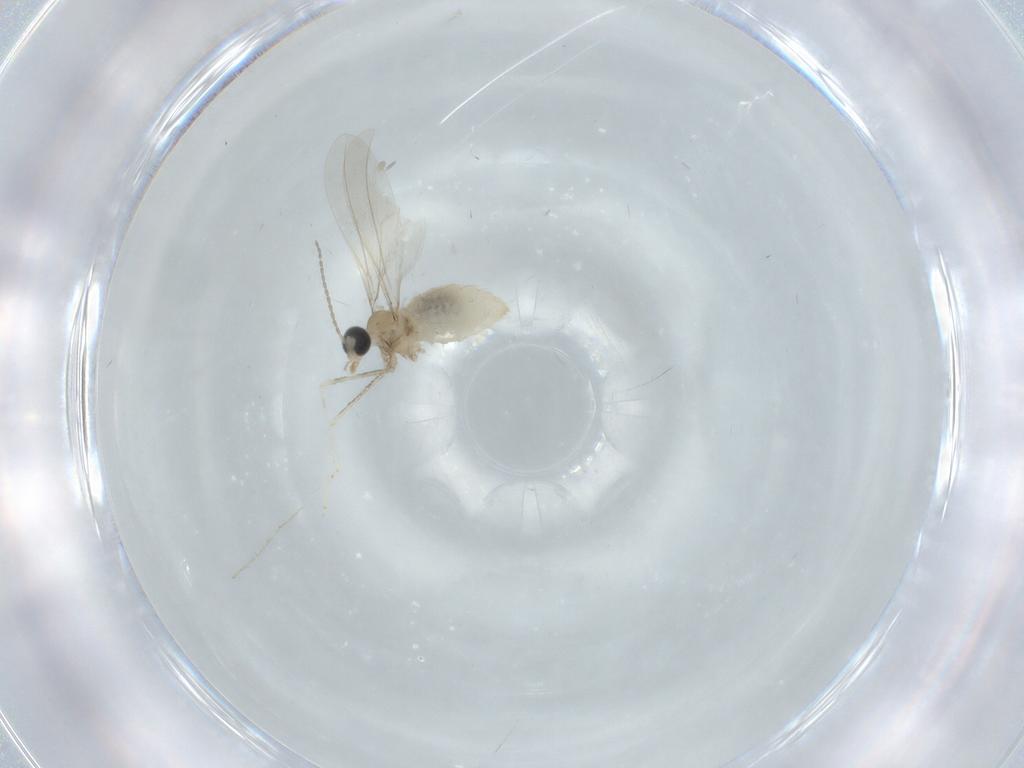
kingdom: Animalia
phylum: Arthropoda
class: Insecta
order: Diptera
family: Cecidomyiidae
